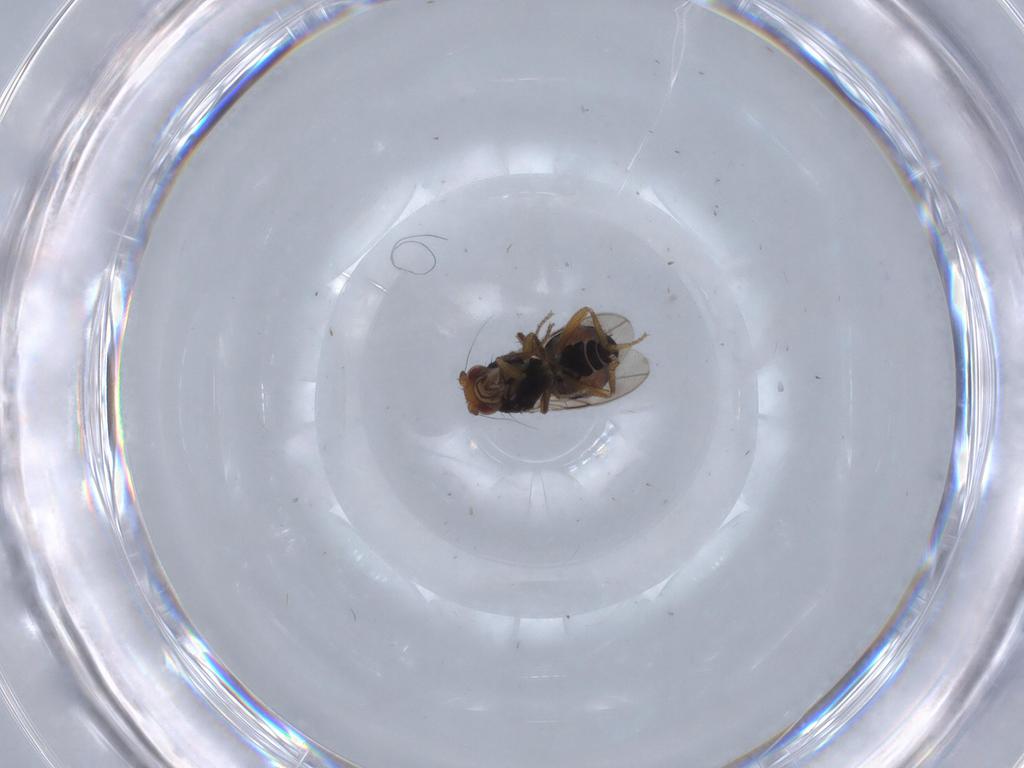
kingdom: Animalia
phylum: Arthropoda
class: Insecta
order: Diptera
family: Sphaeroceridae
